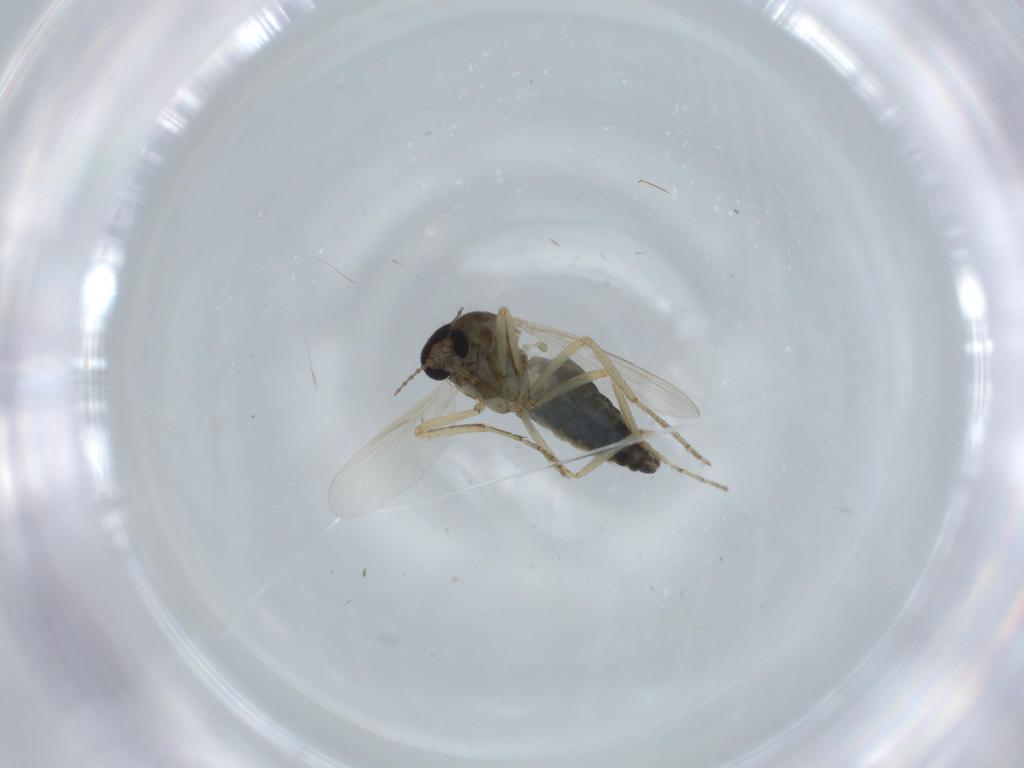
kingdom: Animalia
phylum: Arthropoda
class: Insecta
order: Diptera
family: Ceratopogonidae
